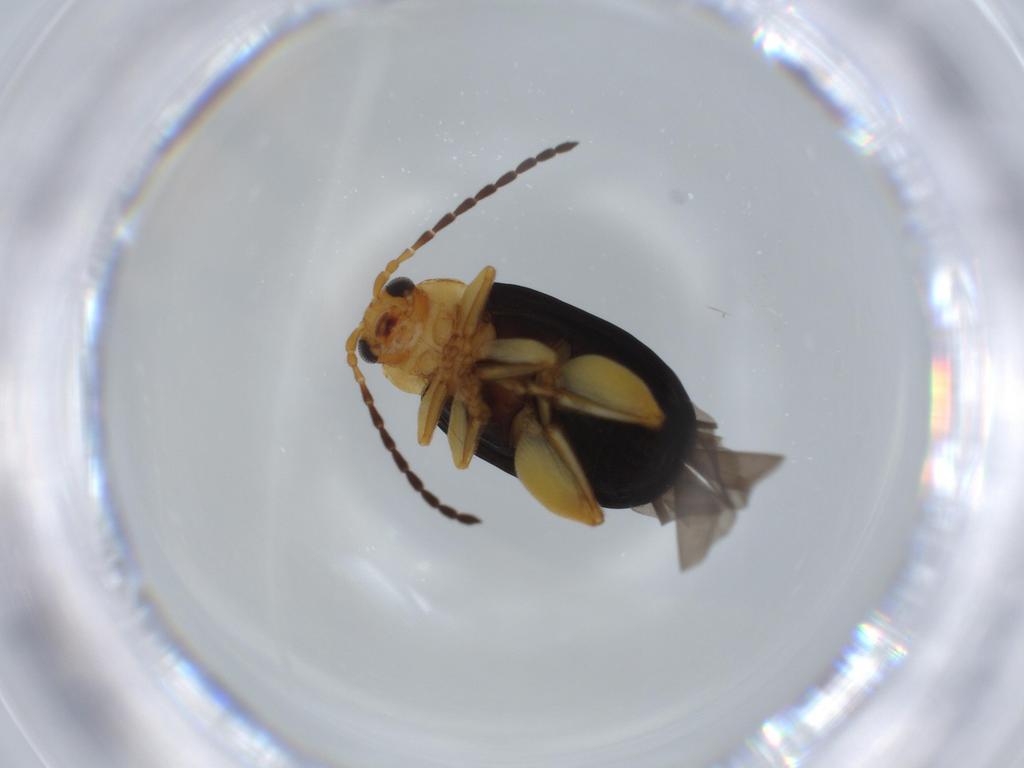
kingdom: Animalia
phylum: Arthropoda
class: Insecta
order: Coleoptera
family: Chrysomelidae
